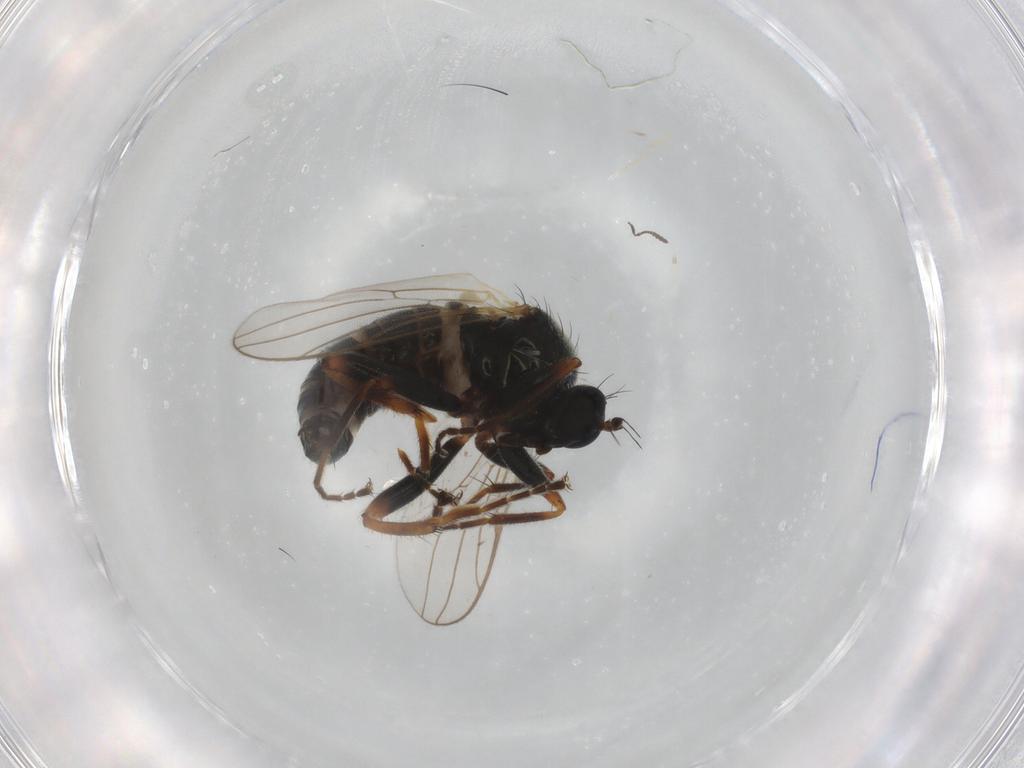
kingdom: Animalia
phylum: Arthropoda
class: Insecta
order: Diptera
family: Hybotidae
